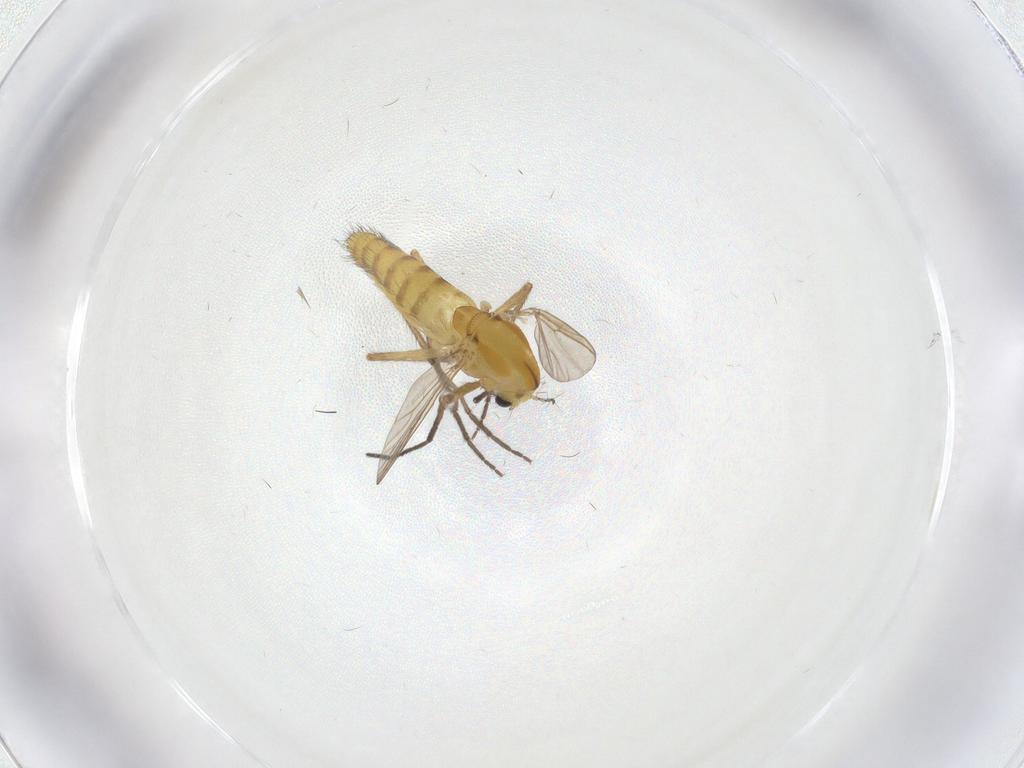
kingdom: Animalia
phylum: Arthropoda
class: Insecta
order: Diptera
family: Chironomidae
